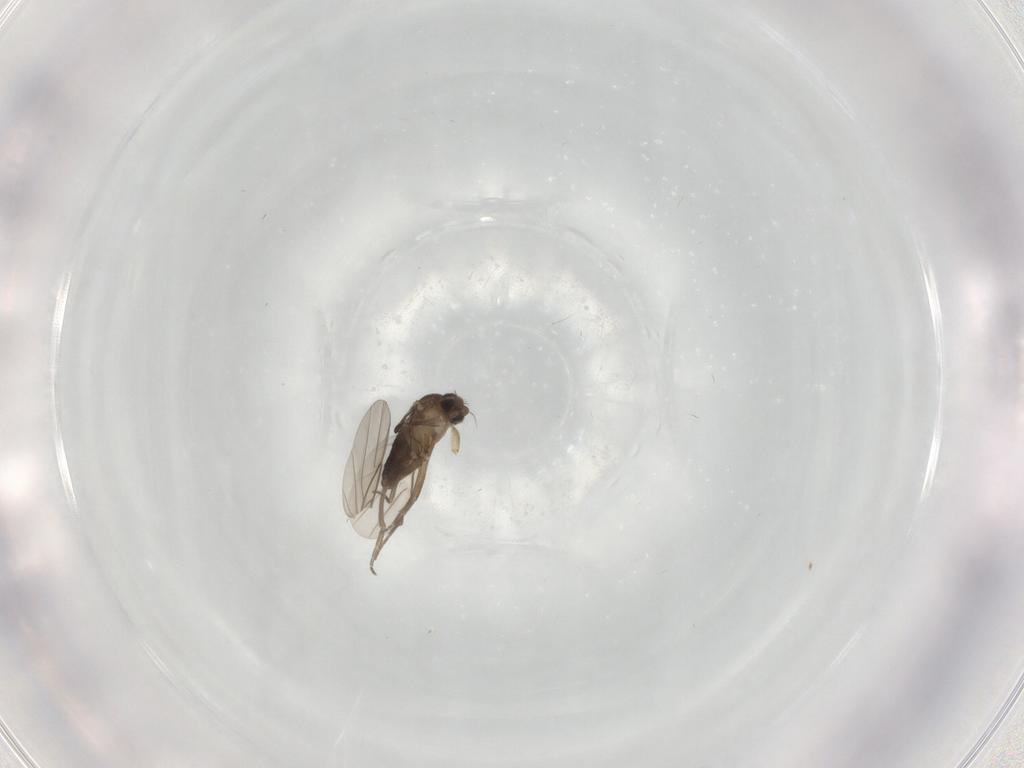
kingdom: Animalia
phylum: Arthropoda
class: Insecta
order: Diptera
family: Phoridae
